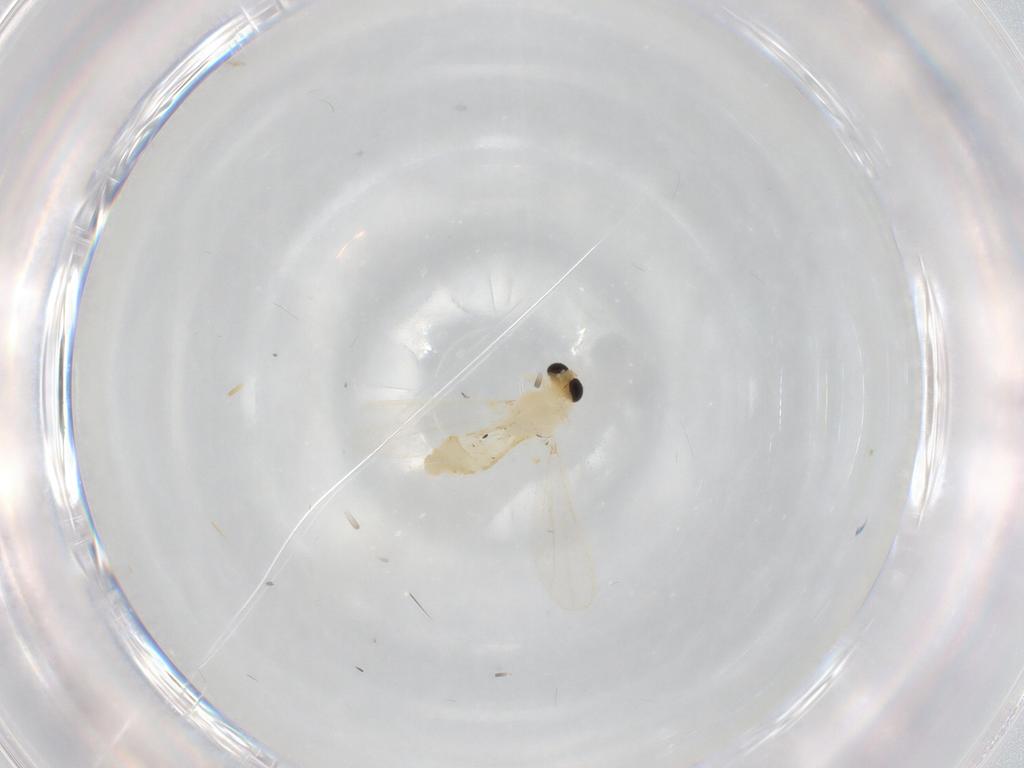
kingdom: Animalia
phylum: Arthropoda
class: Insecta
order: Diptera
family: Chironomidae
